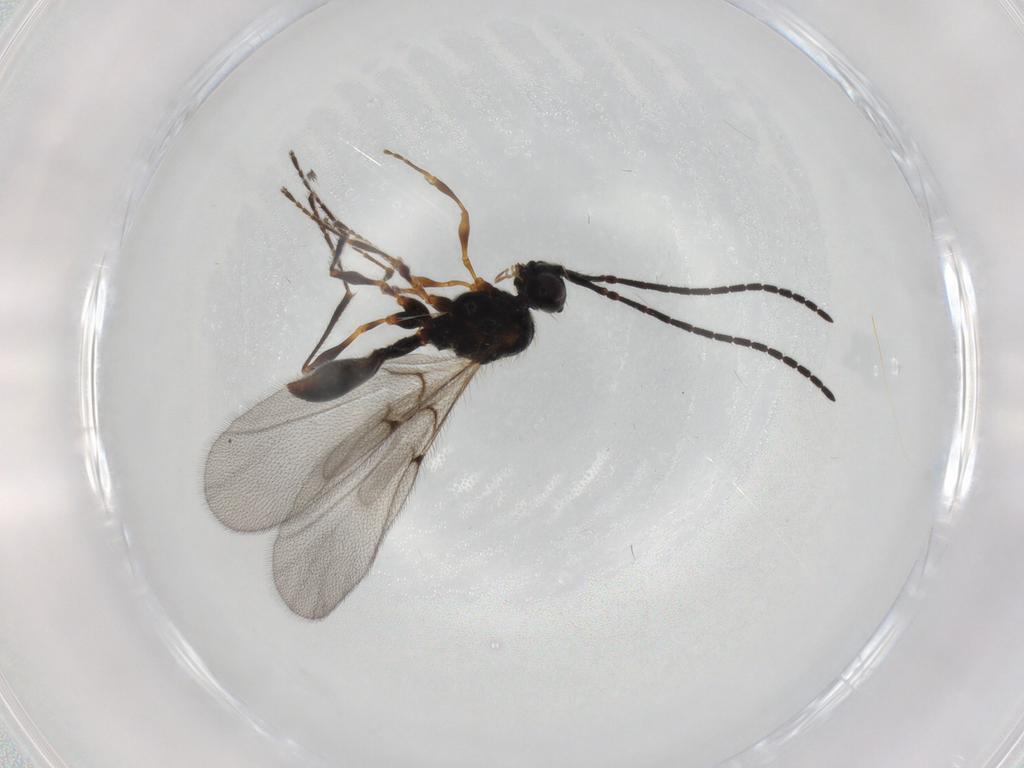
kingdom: Animalia
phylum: Arthropoda
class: Insecta
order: Hymenoptera
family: Diapriidae
